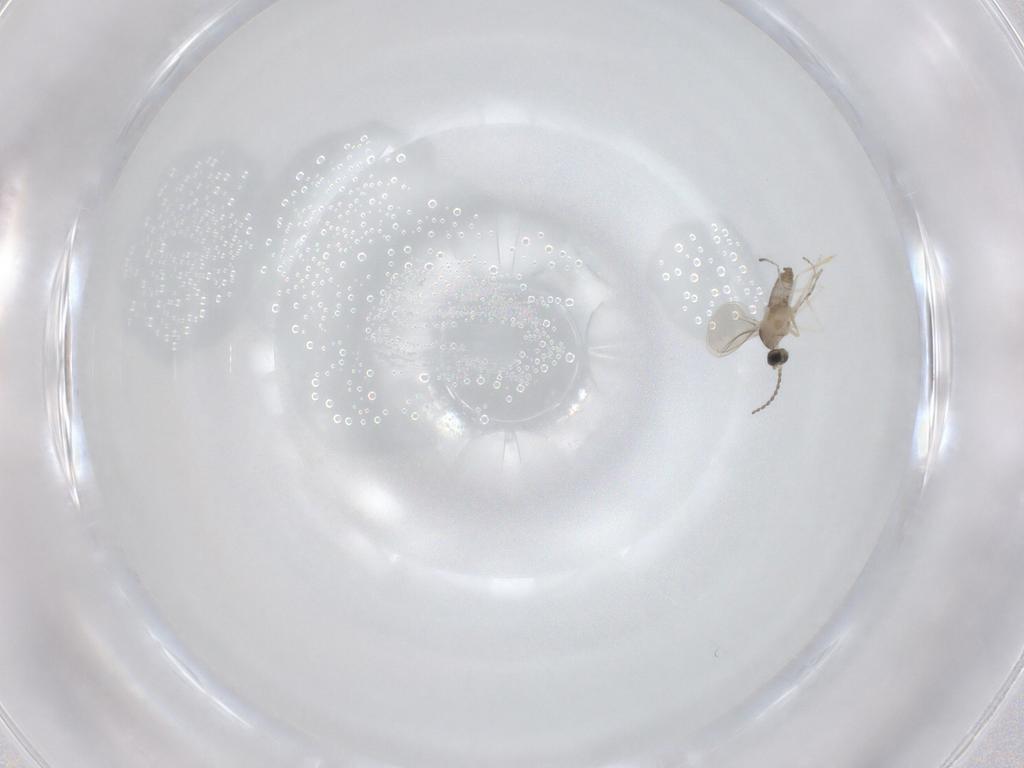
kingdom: Animalia
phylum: Arthropoda
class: Insecta
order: Diptera
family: Cecidomyiidae
